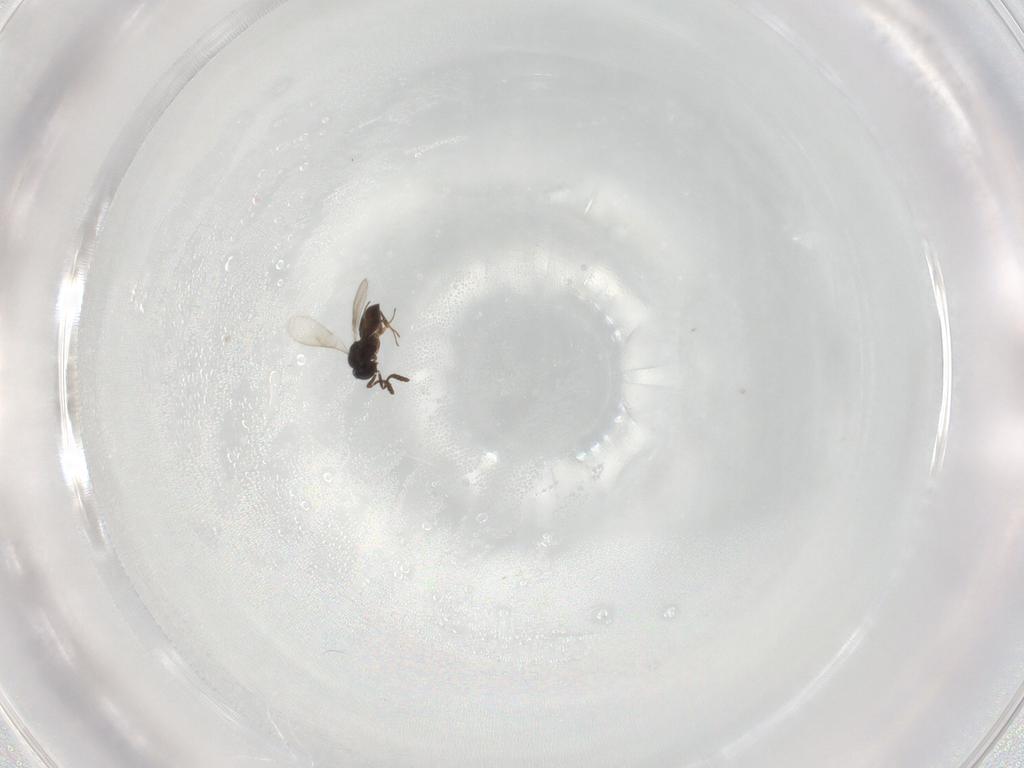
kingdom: Animalia
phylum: Arthropoda
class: Insecta
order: Hymenoptera
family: Scelionidae
